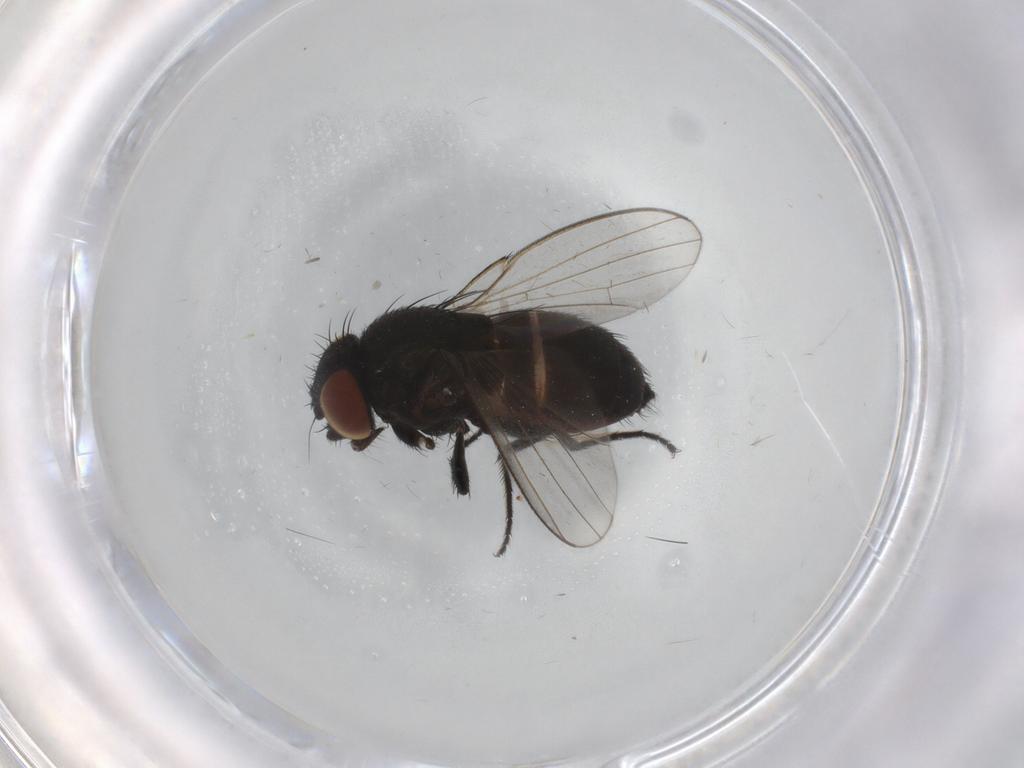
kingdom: Animalia
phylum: Arthropoda
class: Insecta
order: Diptera
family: Milichiidae
